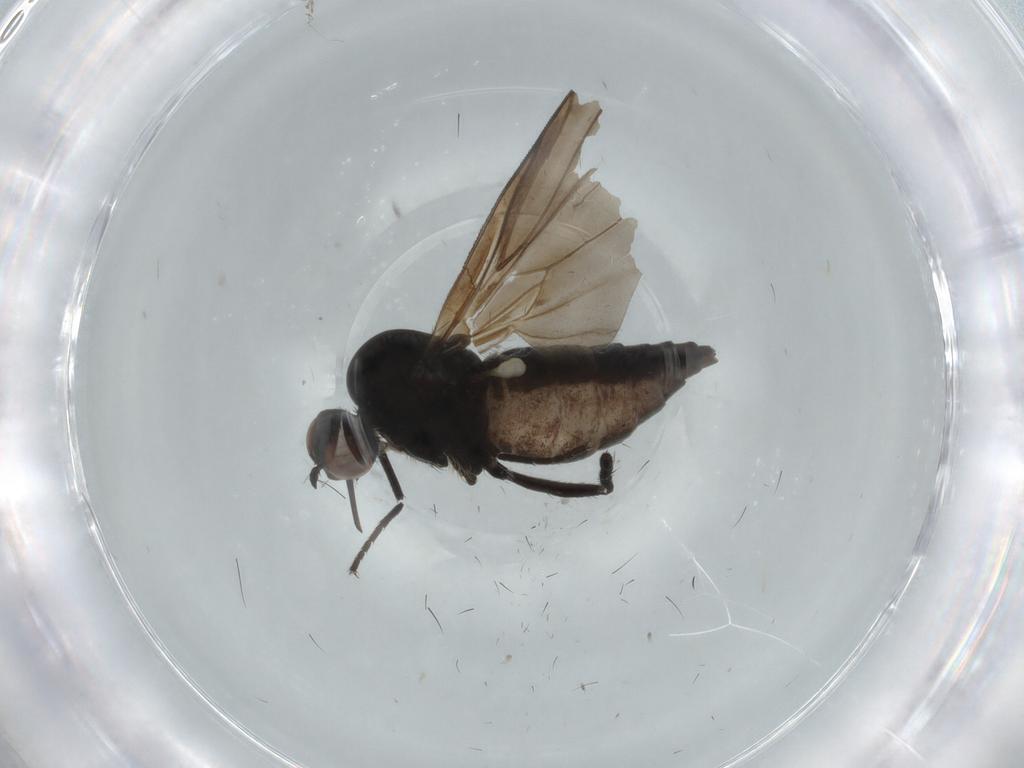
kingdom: Animalia
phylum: Arthropoda
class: Insecta
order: Diptera
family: Empididae
